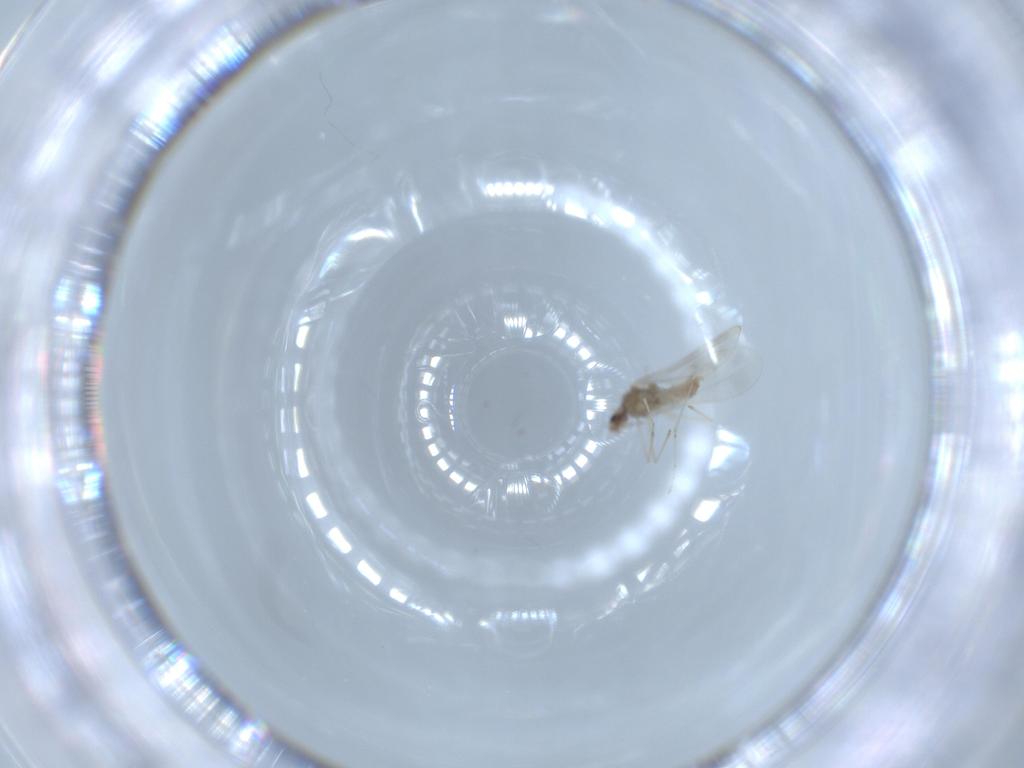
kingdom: Animalia
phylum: Arthropoda
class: Insecta
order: Diptera
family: Cecidomyiidae
